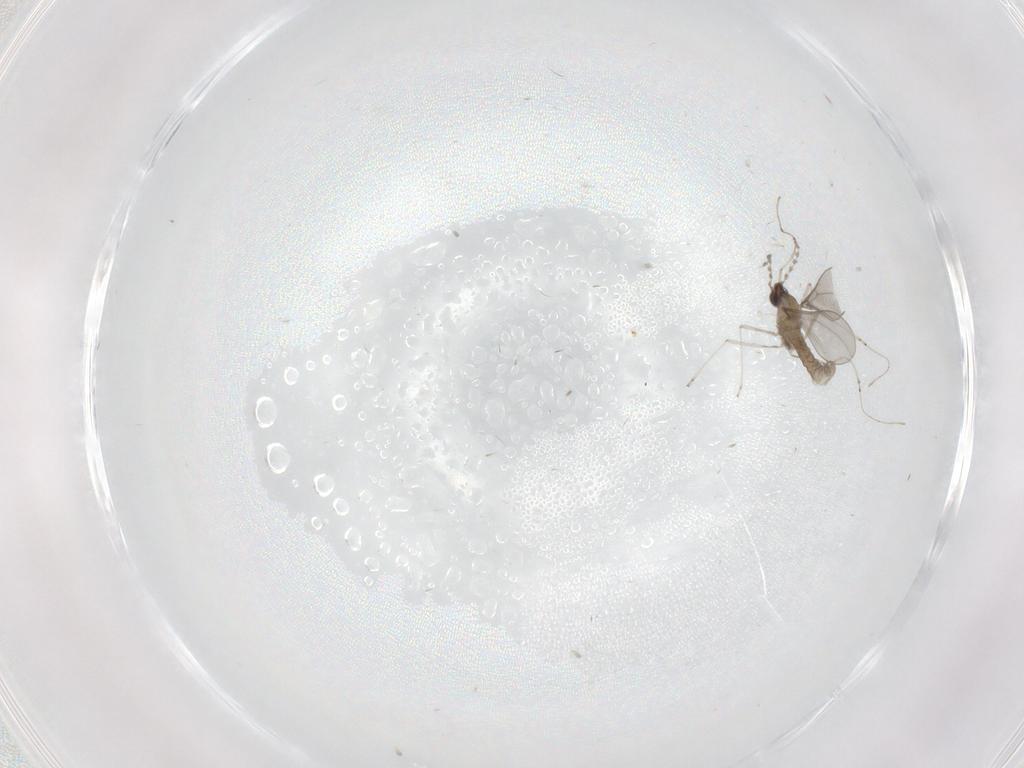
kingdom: Animalia
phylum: Arthropoda
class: Insecta
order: Diptera
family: Cecidomyiidae
